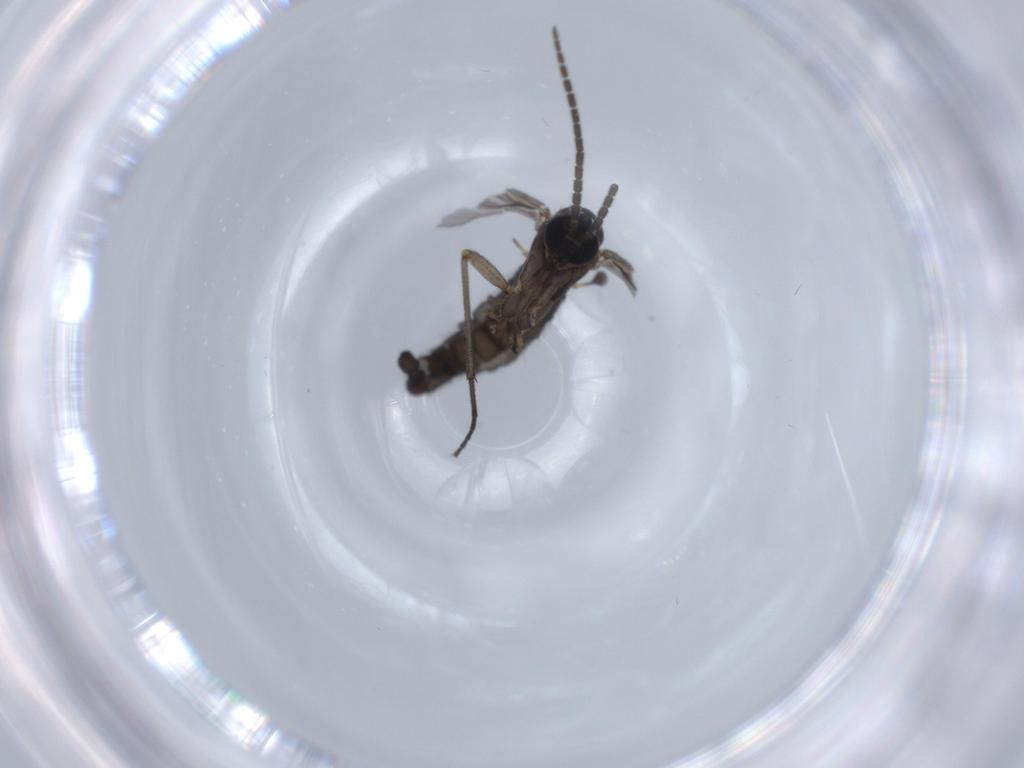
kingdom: Animalia
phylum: Arthropoda
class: Insecta
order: Diptera
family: Sciaridae
